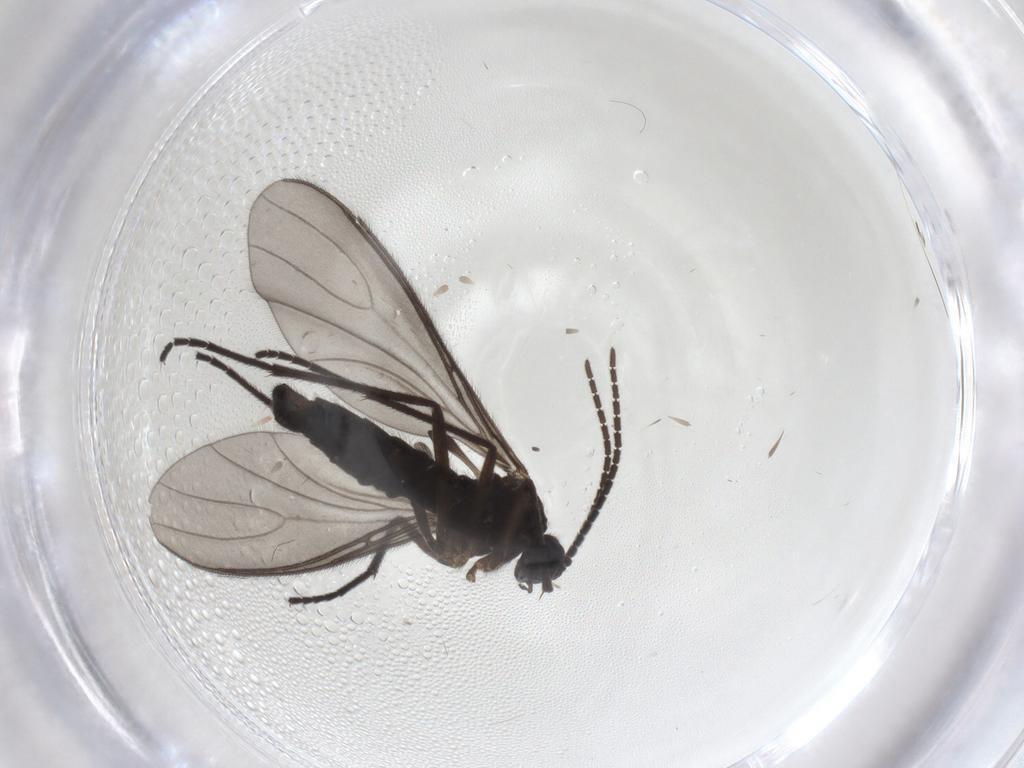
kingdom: Animalia
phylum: Arthropoda
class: Insecta
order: Diptera
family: Sciaridae
